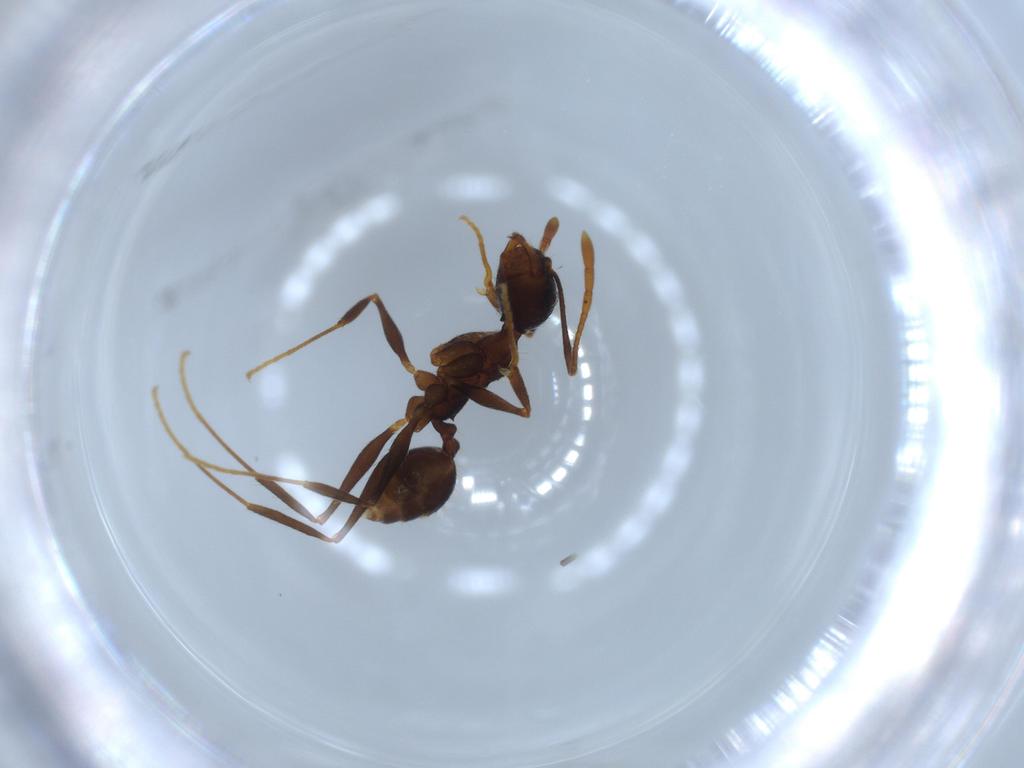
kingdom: Animalia
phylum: Arthropoda
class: Insecta
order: Hymenoptera
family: Formicidae
